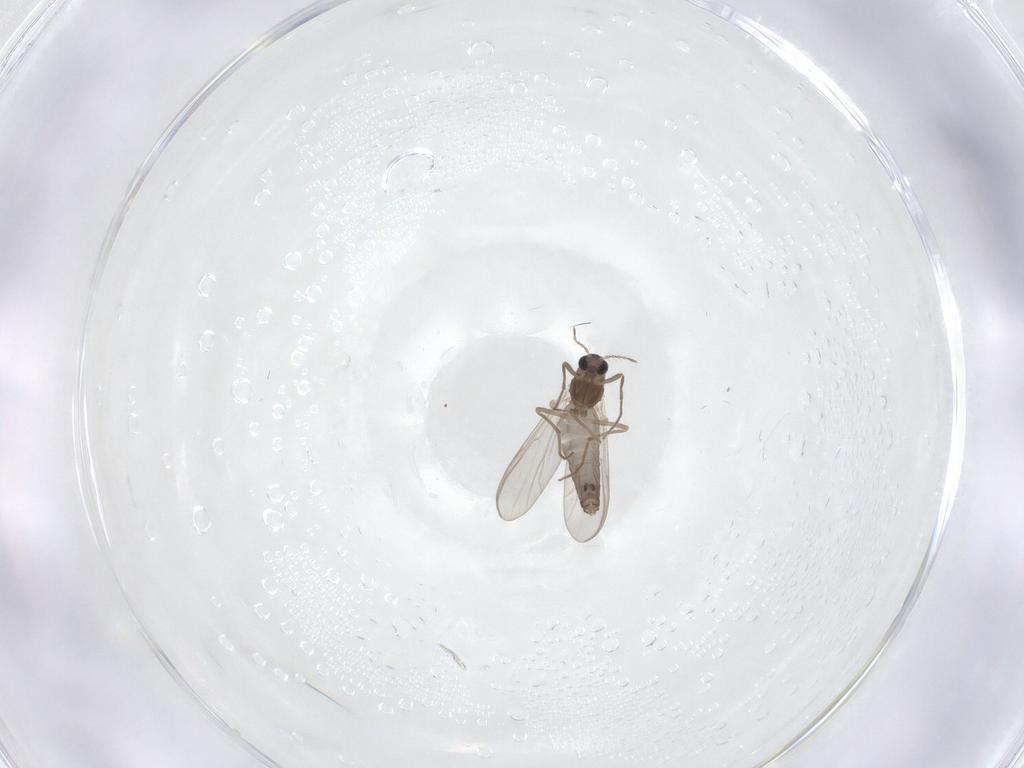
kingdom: Animalia
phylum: Arthropoda
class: Insecta
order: Diptera
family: Chironomidae
